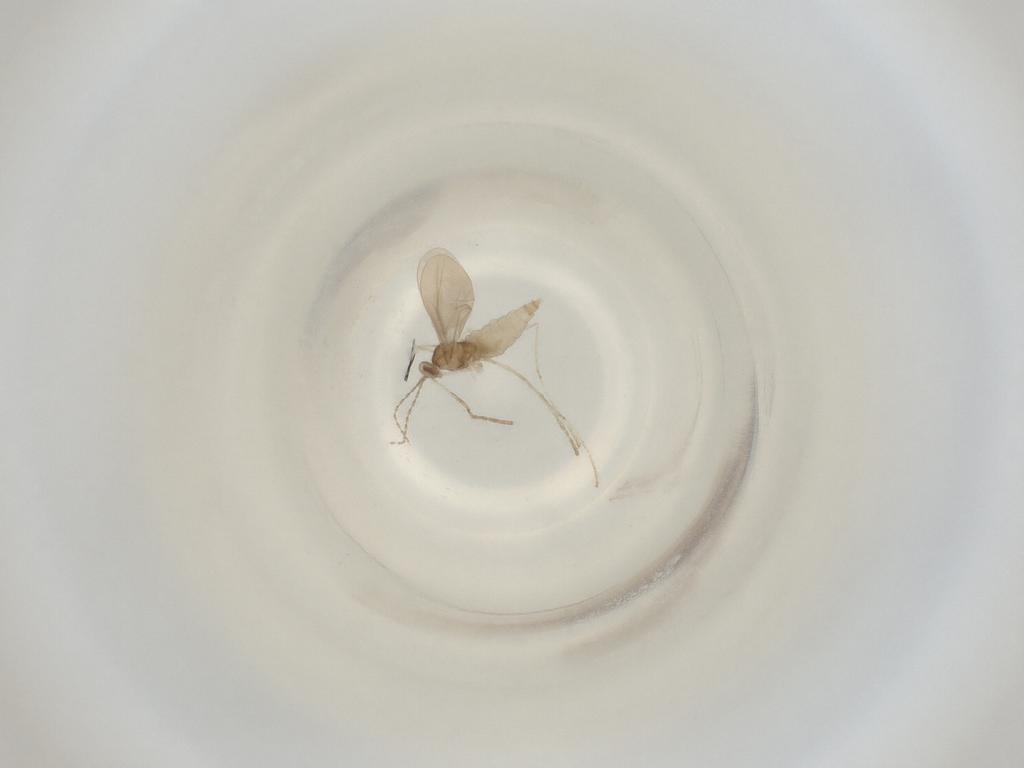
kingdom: Animalia
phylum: Arthropoda
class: Insecta
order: Diptera
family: Cecidomyiidae
